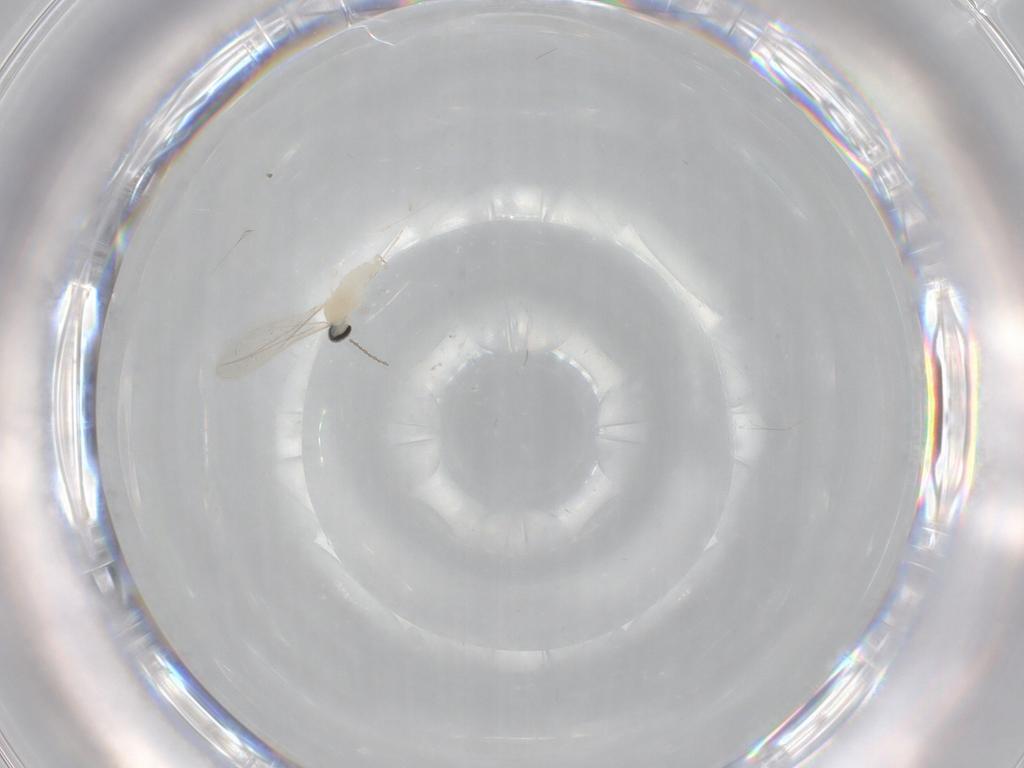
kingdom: Animalia
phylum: Arthropoda
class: Insecta
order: Diptera
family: Cecidomyiidae
